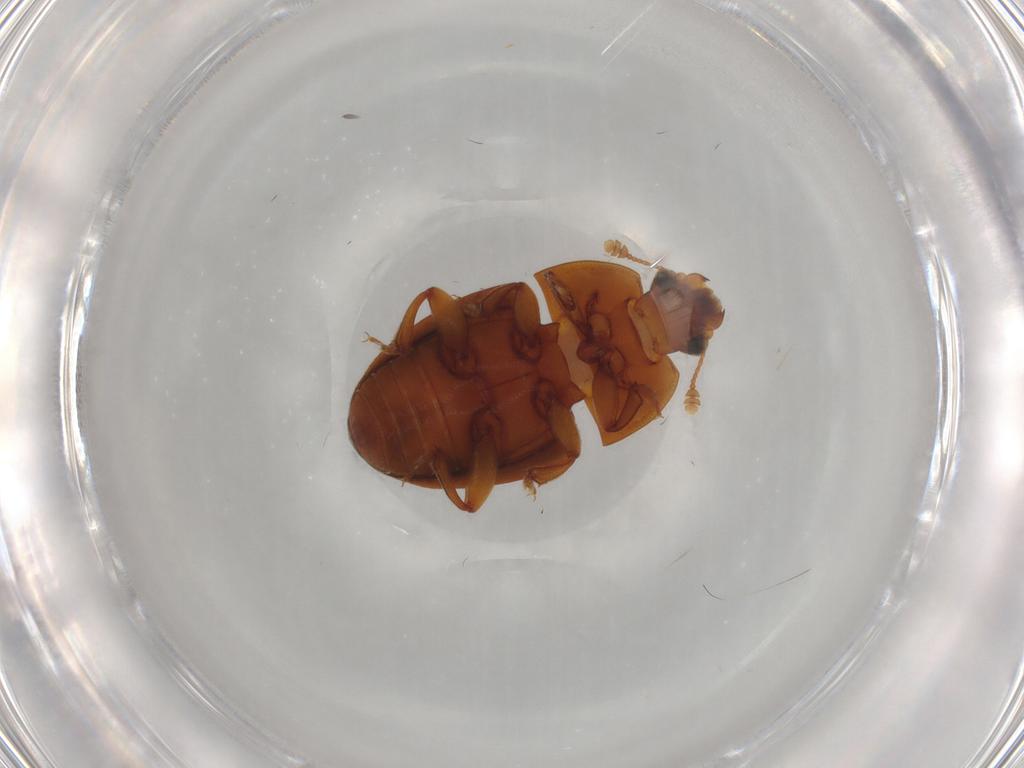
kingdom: Animalia
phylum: Arthropoda
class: Insecta
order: Coleoptera
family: Nitidulidae
